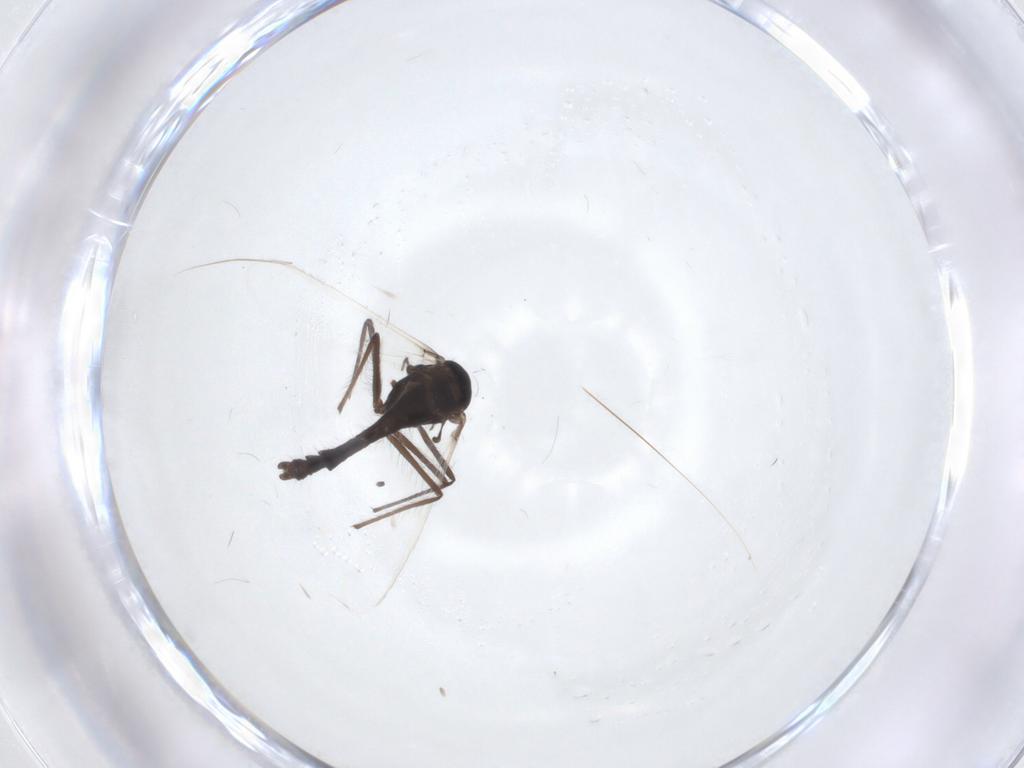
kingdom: Animalia
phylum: Arthropoda
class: Insecta
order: Diptera
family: Chironomidae
